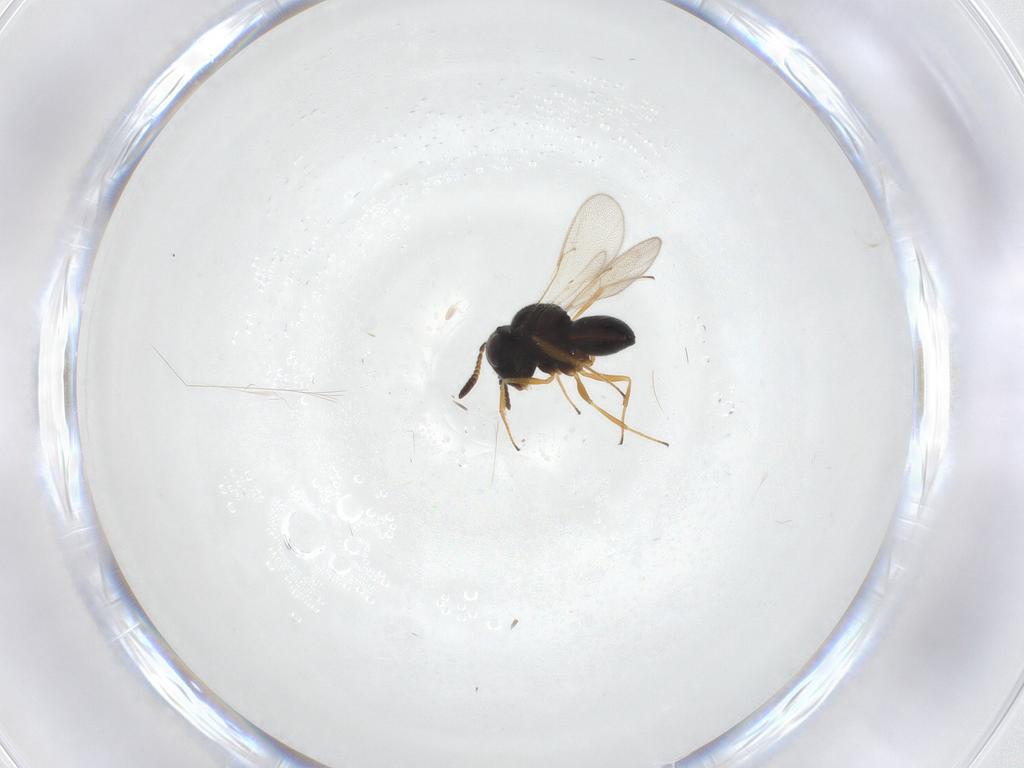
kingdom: Animalia
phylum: Arthropoda
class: Insecta
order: Hymenoptera
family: Scelionidae
